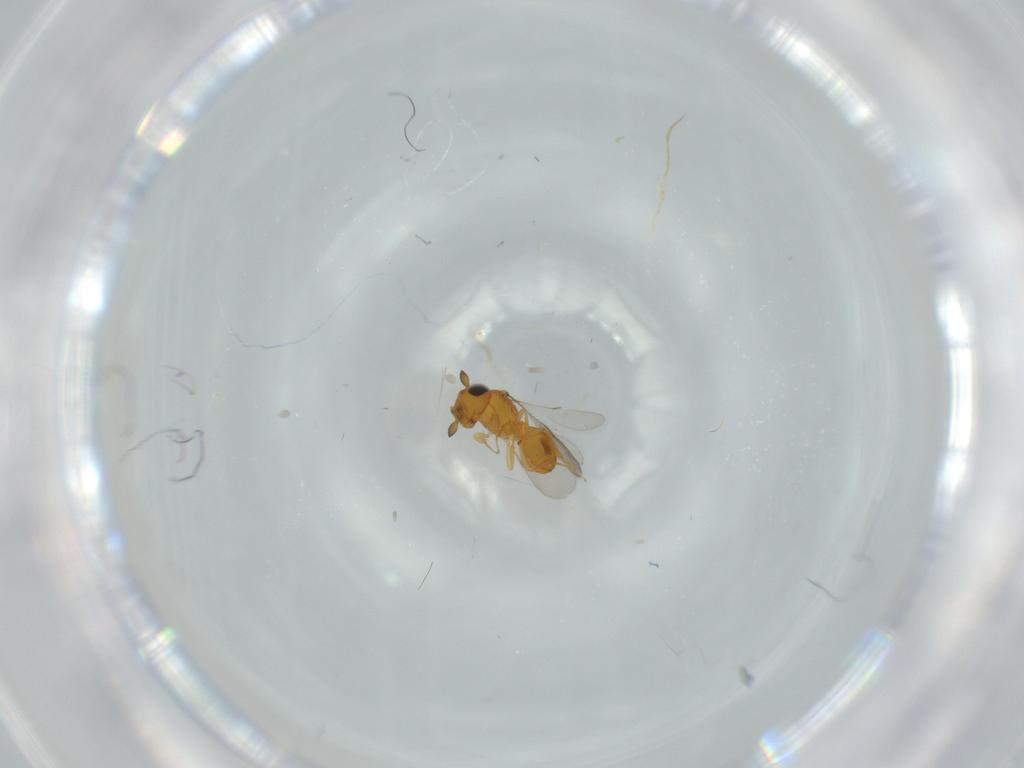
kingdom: Animalia
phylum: Arthropoda
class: Insecta
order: Hymenoptera
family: Scelionidae
